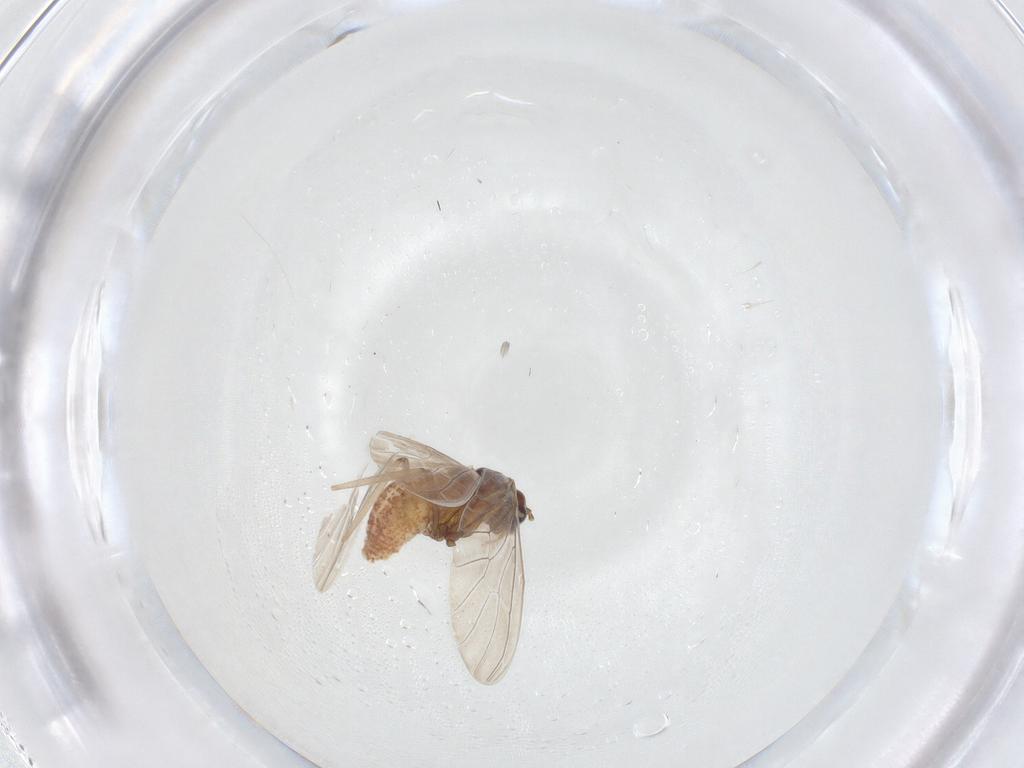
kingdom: Animalia
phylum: Arthropoda
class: Insecta
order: Neuroptera
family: Coniopterygidae
